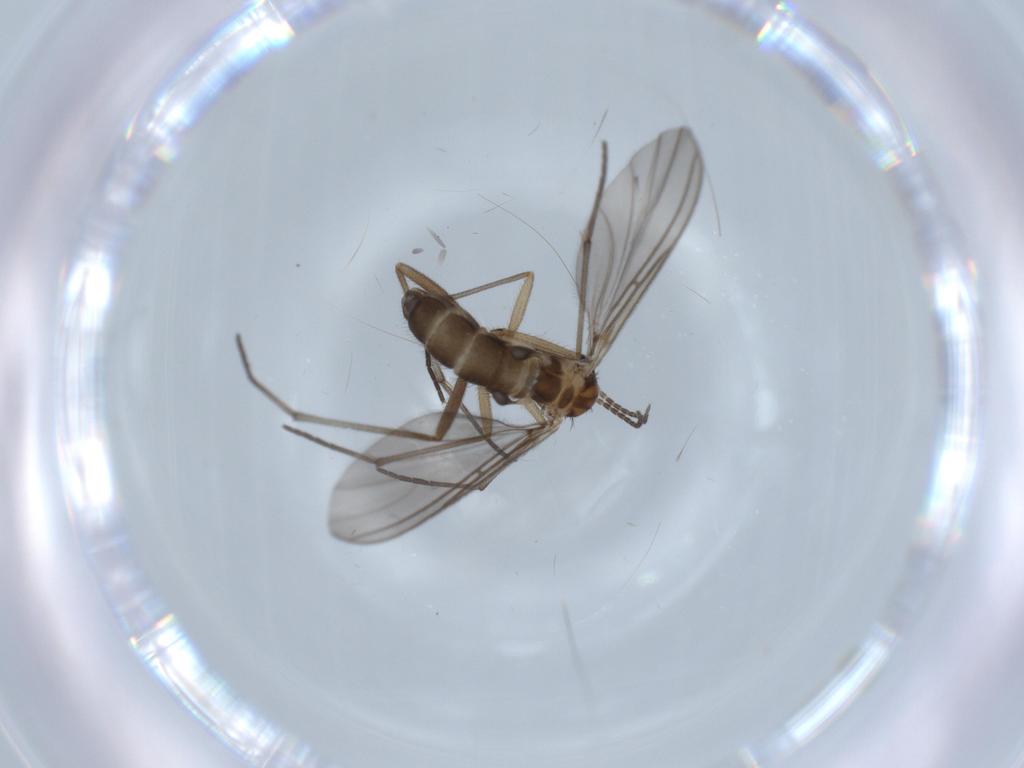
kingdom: Animalia
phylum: Arthropoda
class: Insecta
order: Diptera
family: Sciaridae
